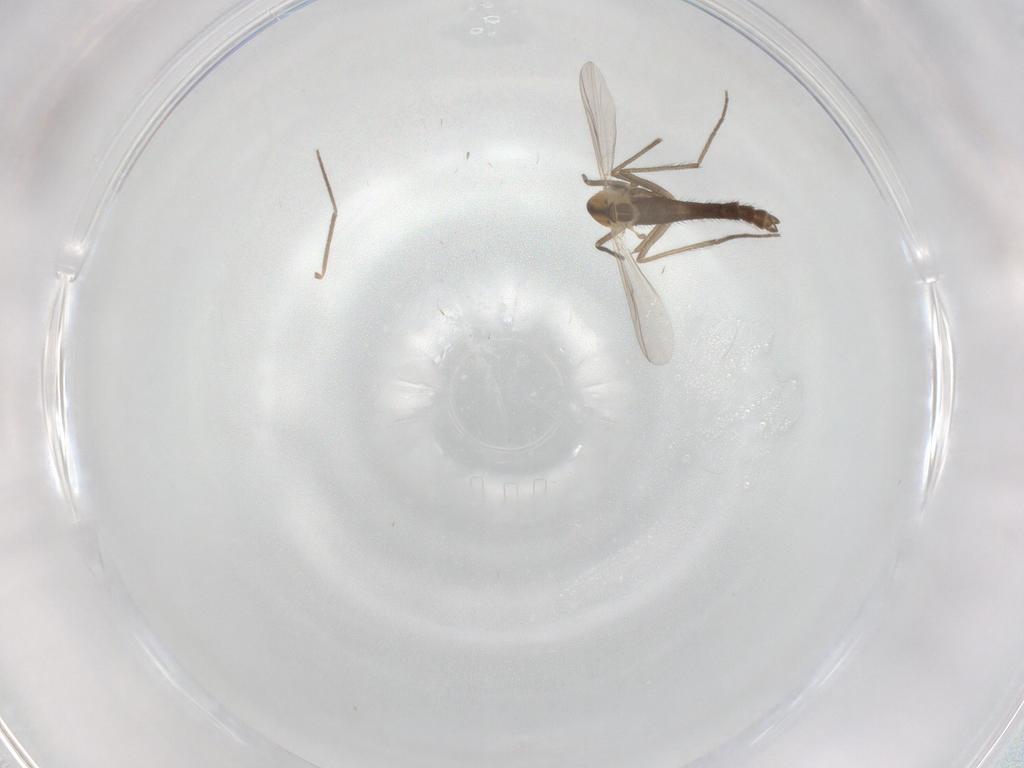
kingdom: Animalia
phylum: Arthropoda
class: Insecta
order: Diptera
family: Chironomidae
